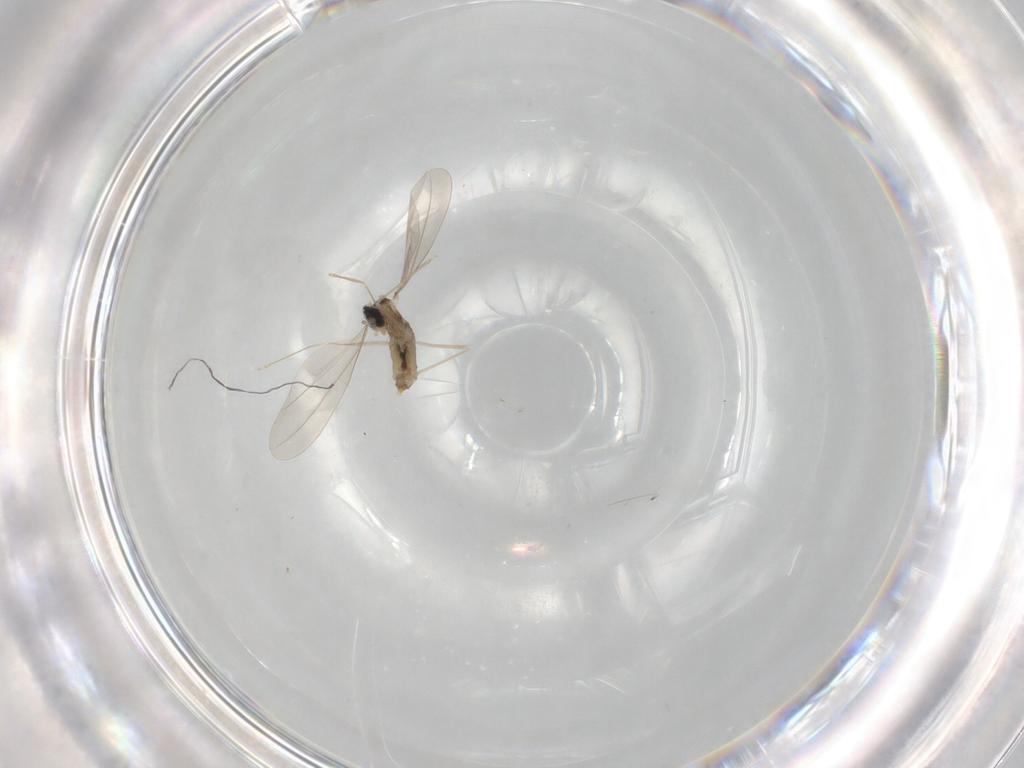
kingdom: Animalia
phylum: Arthropoda
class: Insecta
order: Diptera
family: Cecidomyiidae
